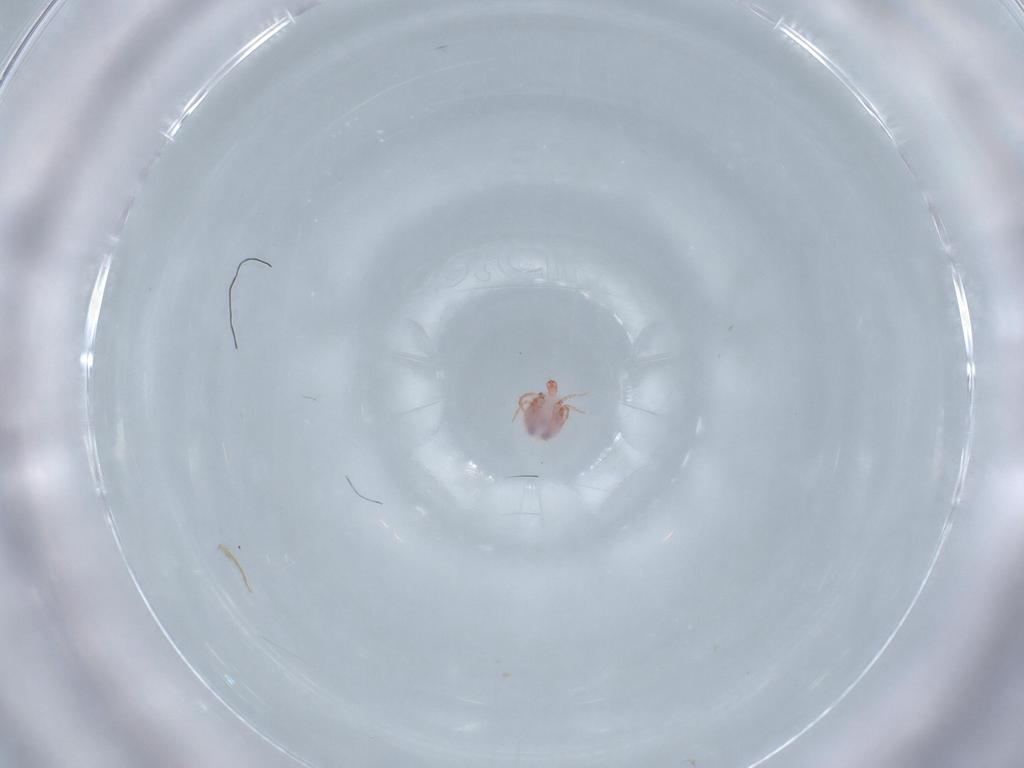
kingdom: Animalia
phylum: Arthropoda
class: Arachnida
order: Trombidiformes
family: Pionidae
